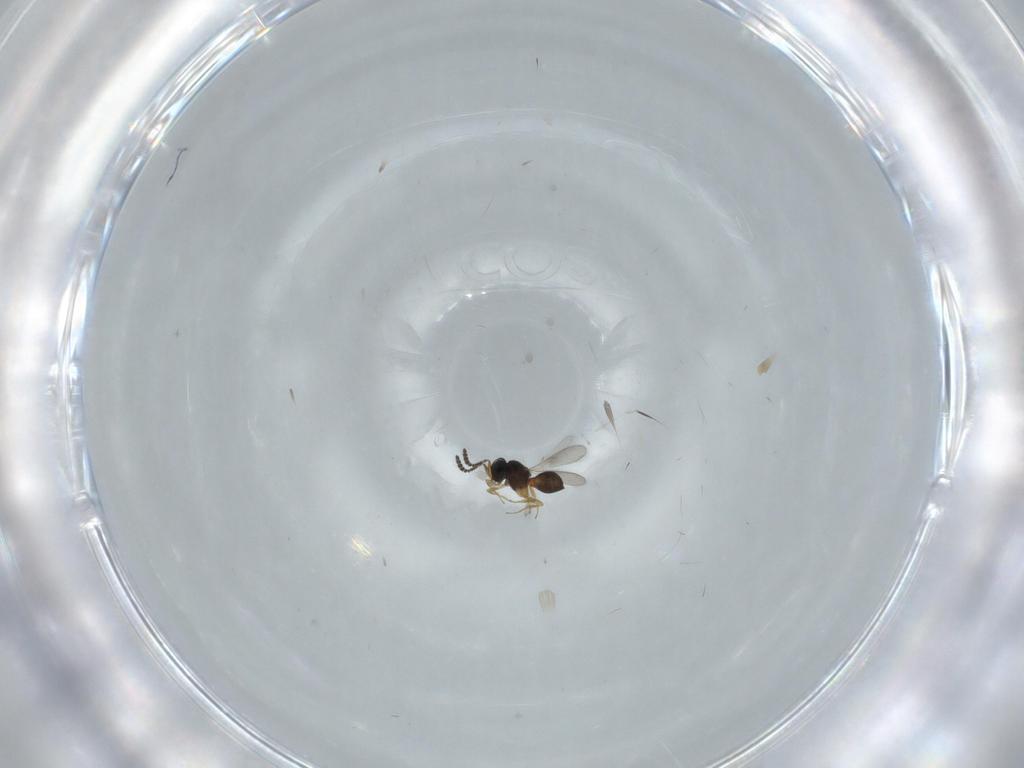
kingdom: Animalia
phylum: Arthropoda
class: Insecta
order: Hymenoptera
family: Scelionidae
